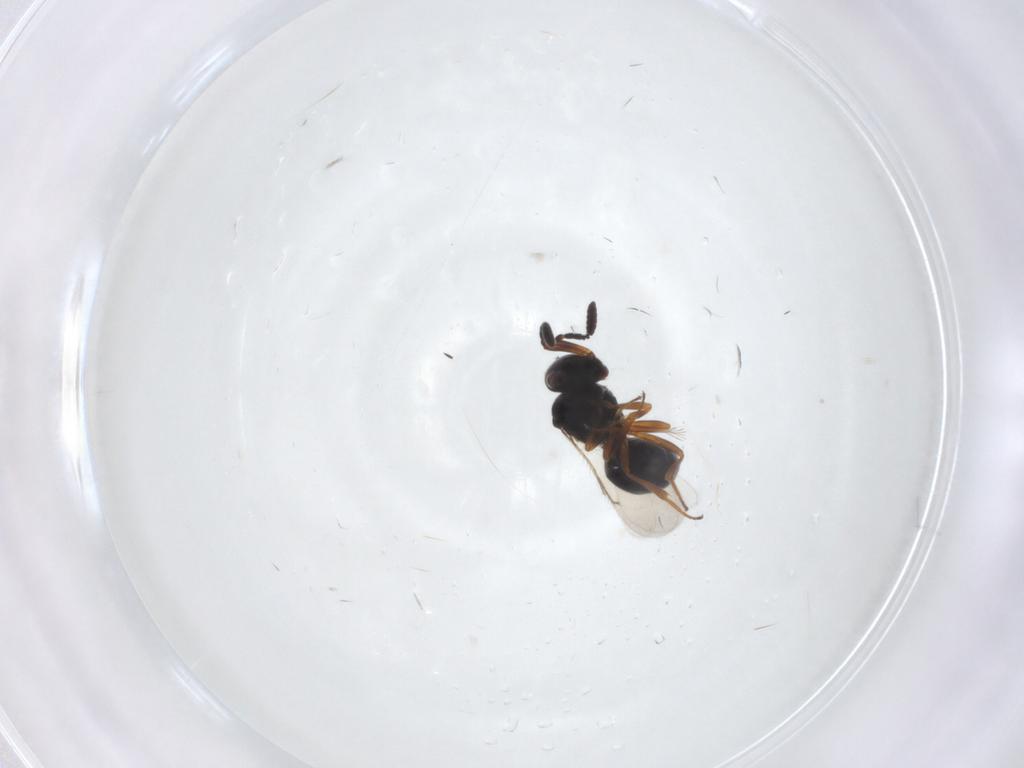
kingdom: Animalia
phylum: Arthropoda
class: Insecta
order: Hymenoptera
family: Scelionidae
